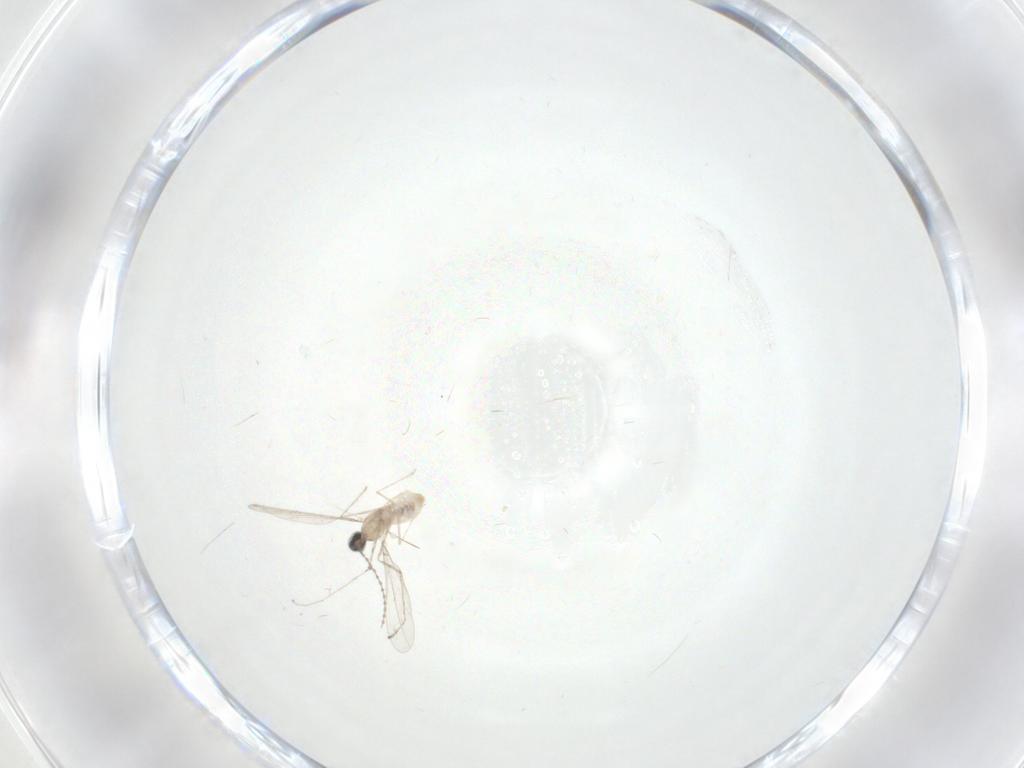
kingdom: Animalia
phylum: Arthropoda
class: Insecta
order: Diptera
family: Cecidomyiidae
